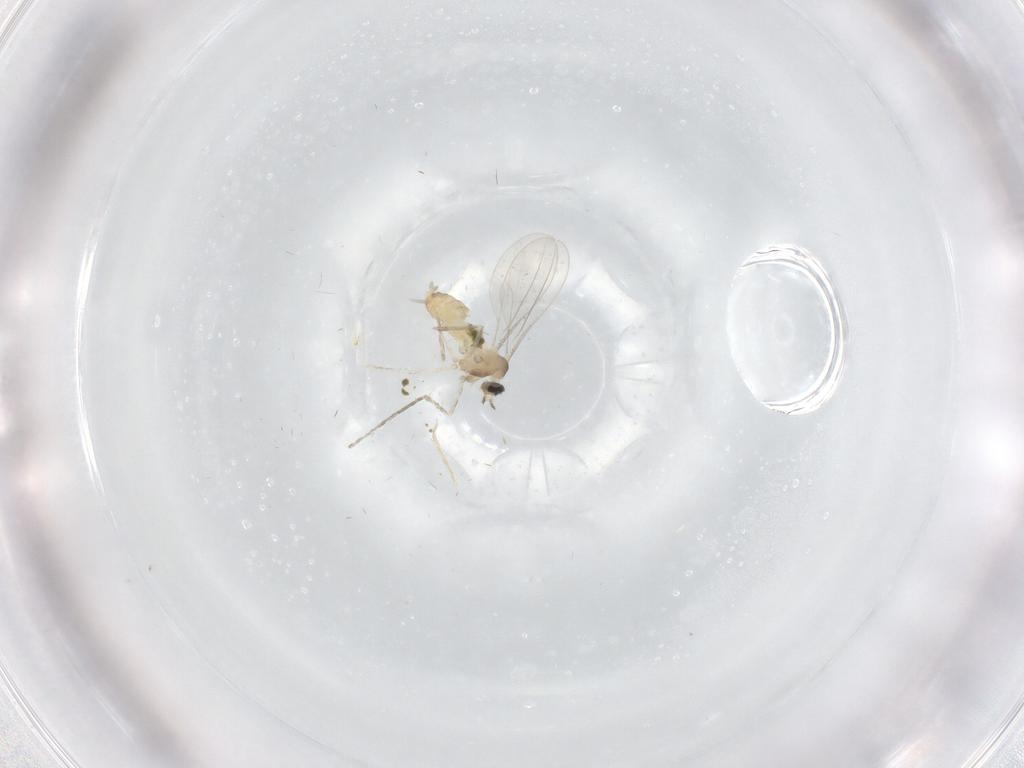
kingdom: Animalia
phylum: Arthropoda
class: Insecta
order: Diptera
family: Cecidomyiidae
